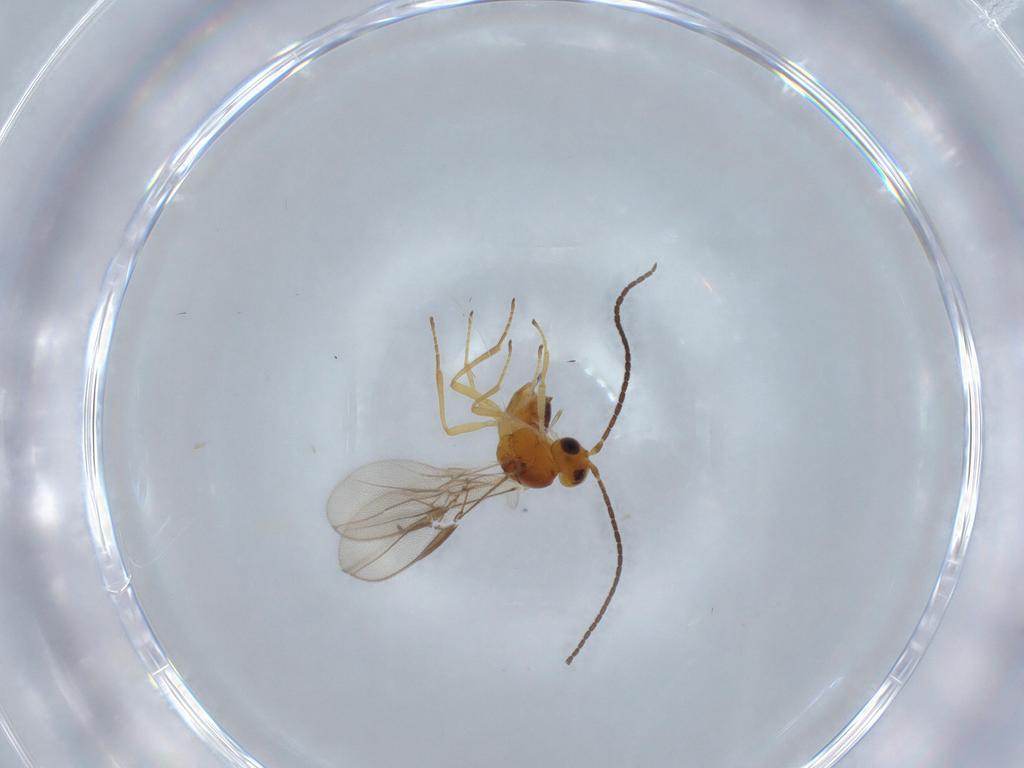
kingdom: Animalia
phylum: Arthropoda
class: Insecta
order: Hymenoptera
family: Braconidae
